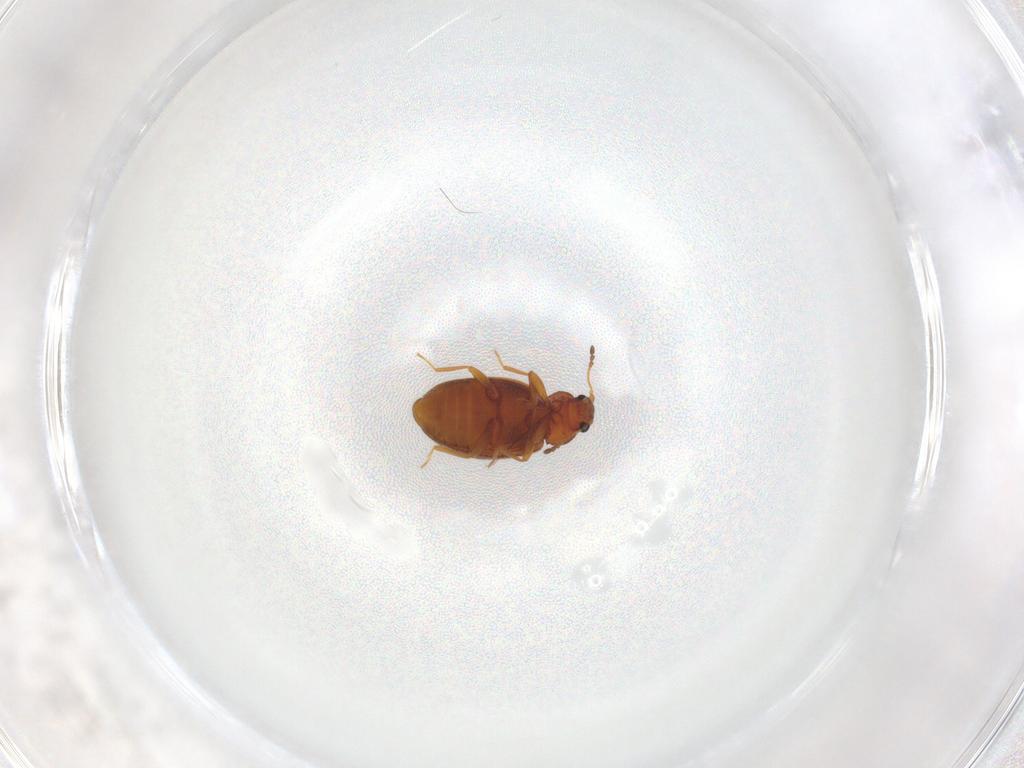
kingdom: Animalia
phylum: Arthropoda
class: Insecta
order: Coleoptera
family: Latridiidae
